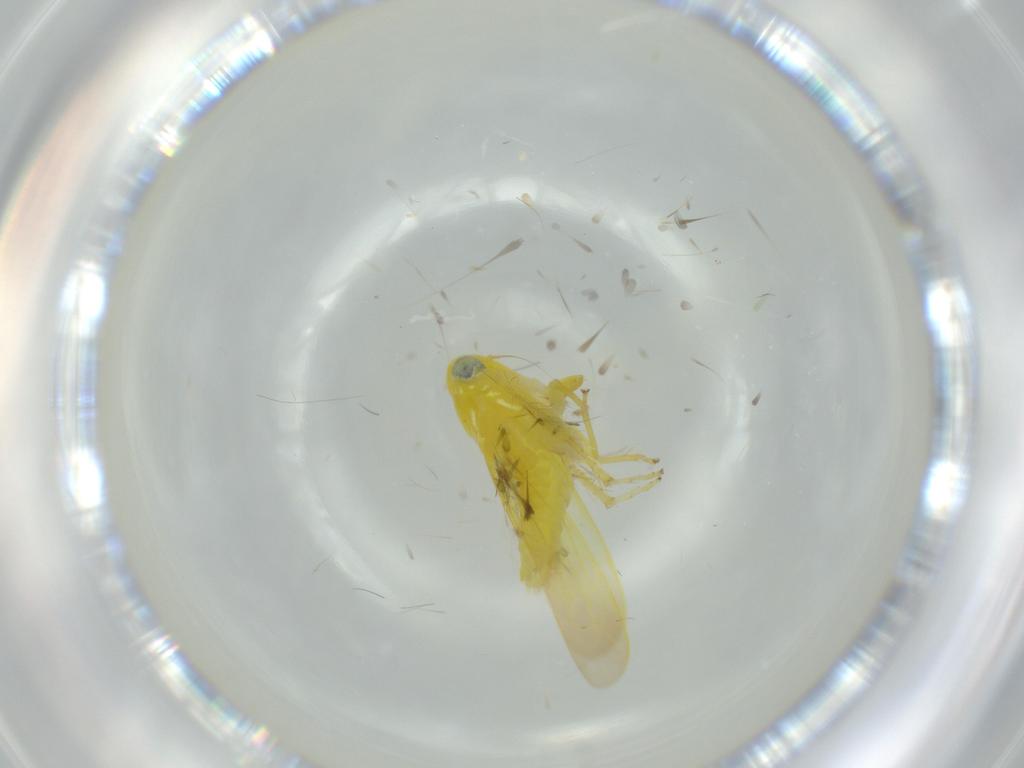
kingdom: Animalia
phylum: Arthropoda
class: Insecta
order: Hemiptera
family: Cicadellidae
